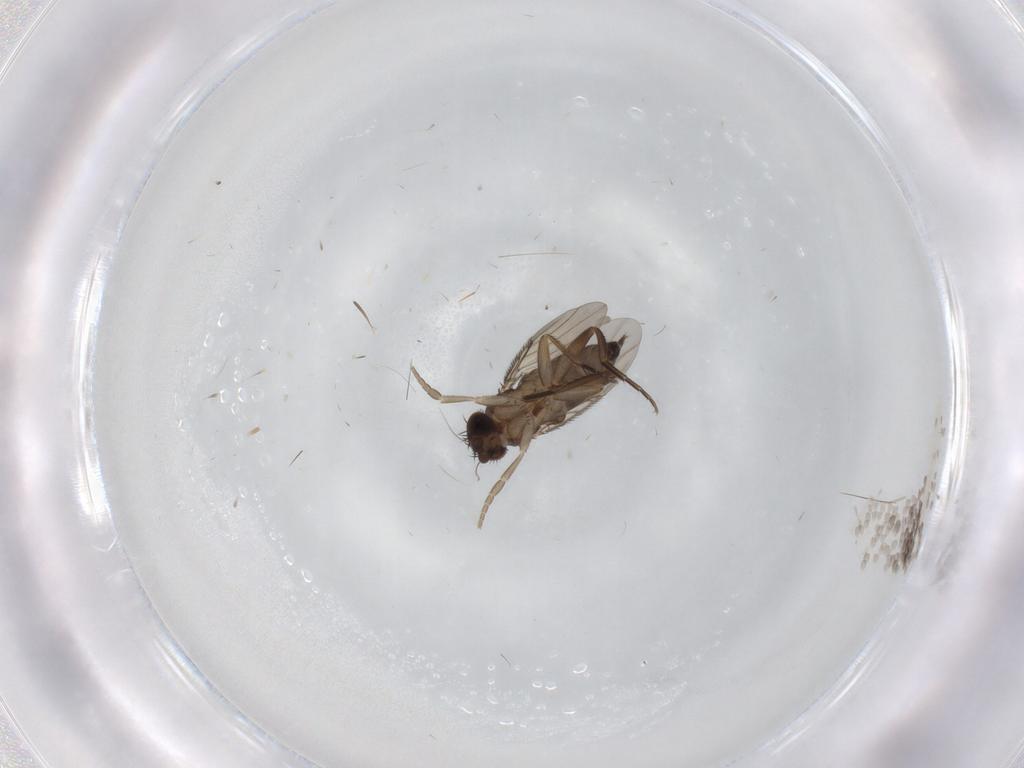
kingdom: Animalia
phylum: Arthropoda
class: Insecta
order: Diptera
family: Phoridae
